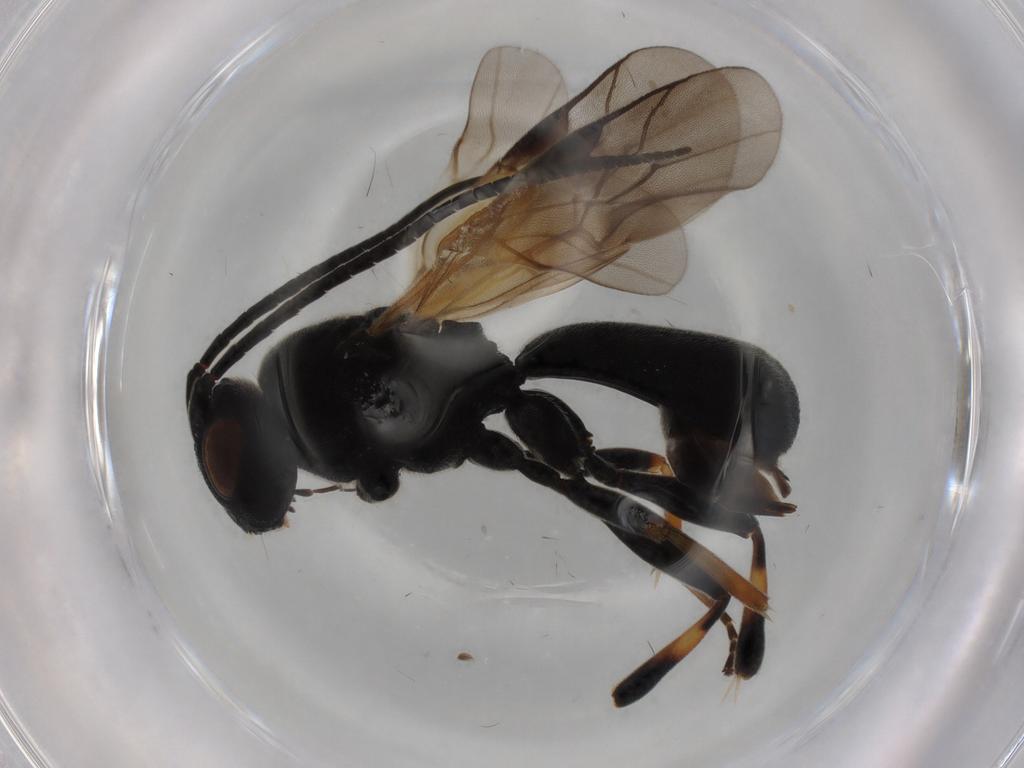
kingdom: Animalia
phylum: Arthropoda
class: Insecta
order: Hymenoptera
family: Braconidae
